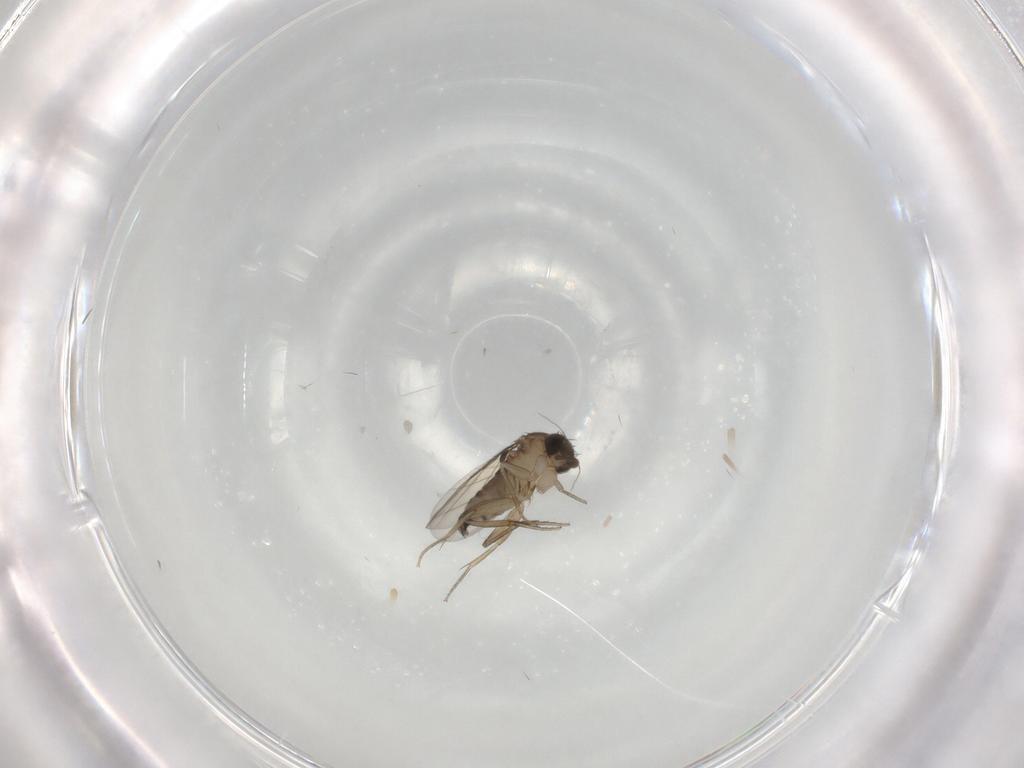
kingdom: Animalia
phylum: Arthropoda
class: Insecta
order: Diptera
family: Phoridae
